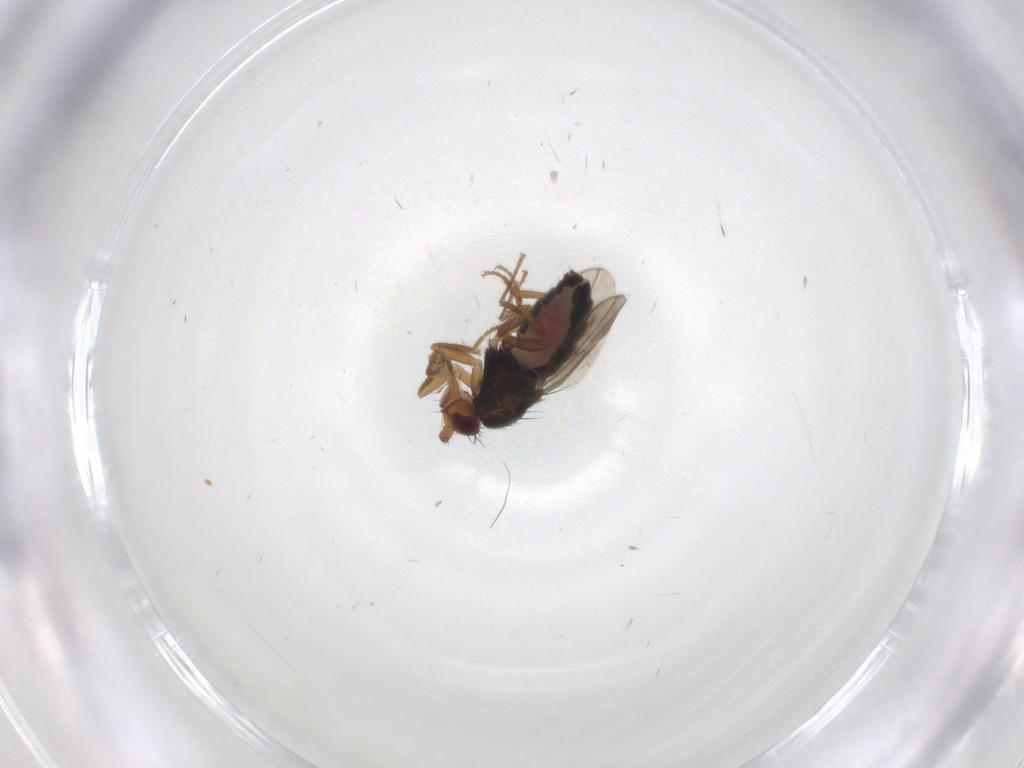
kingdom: Animalia
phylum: Arthropoda
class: Insecta
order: Diptera
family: Sphaeroceridae
